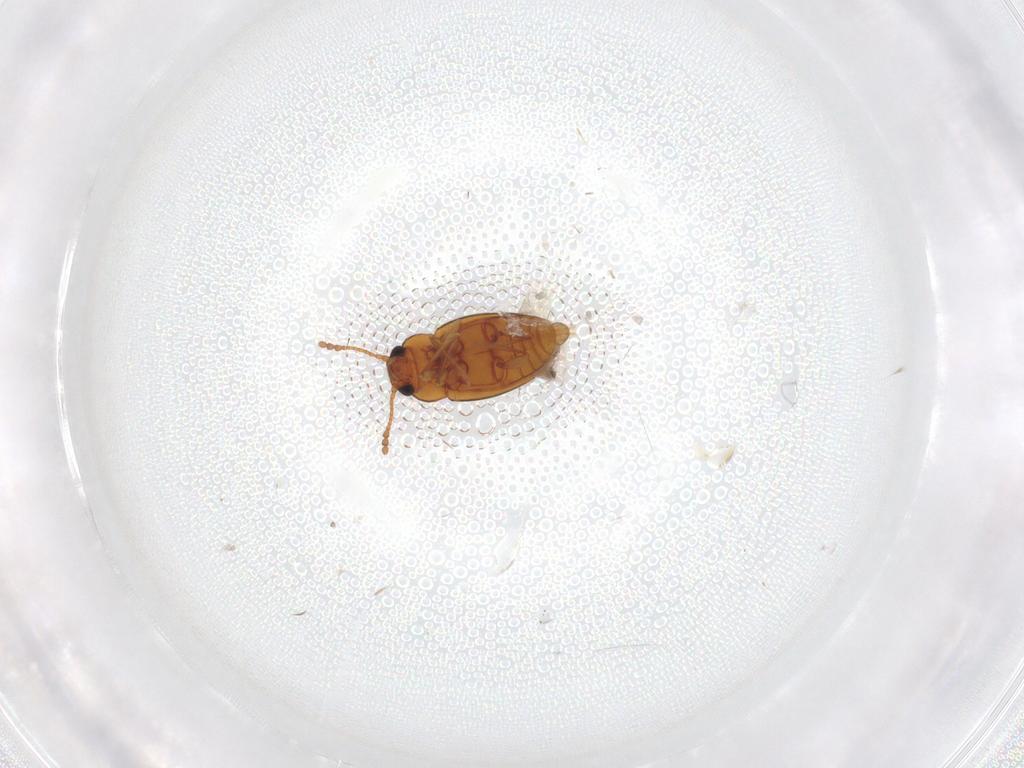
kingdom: Animalia
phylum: Arthropoda
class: Insecta
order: Coleoptera
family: Erotylidae
